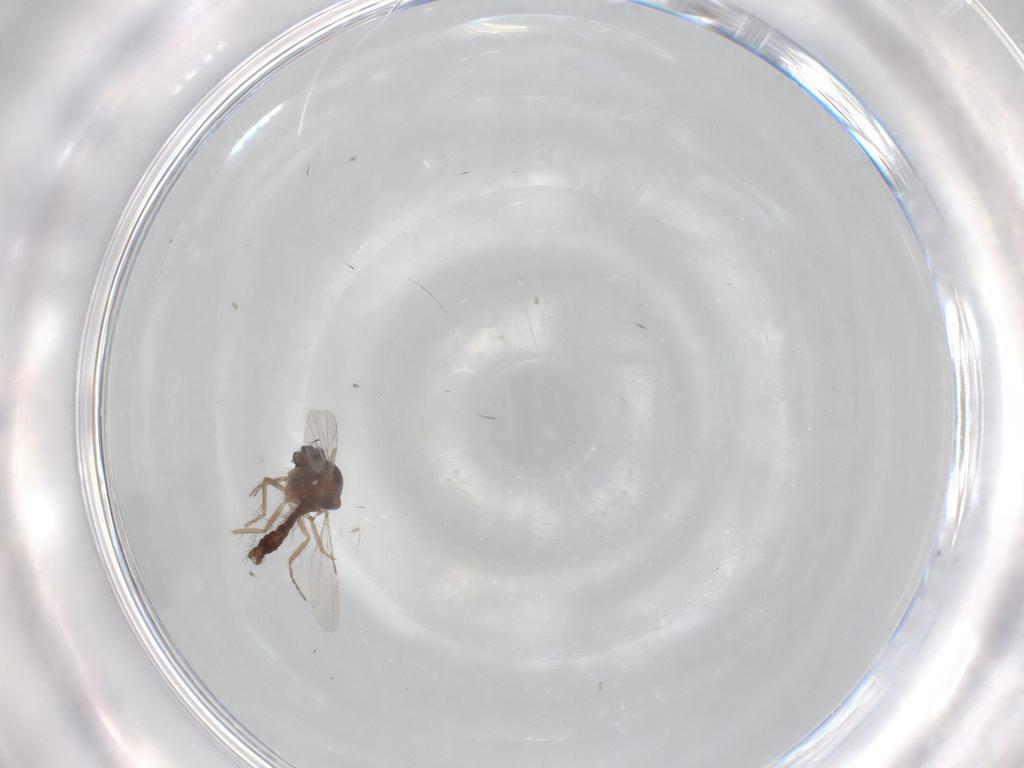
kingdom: Animalia
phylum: Arthropoda
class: Insecta
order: Diptera
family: Ceratopogonidae
